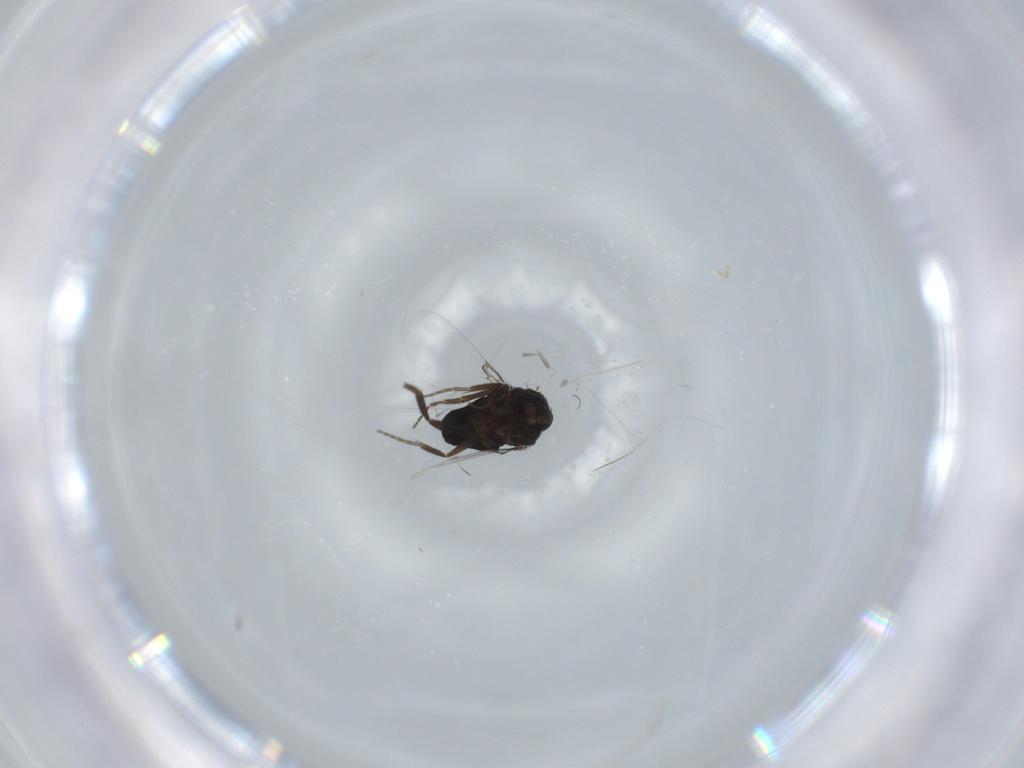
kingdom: Animalia
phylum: Arthropoda
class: Insecta
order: Diptera
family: Phoridae
